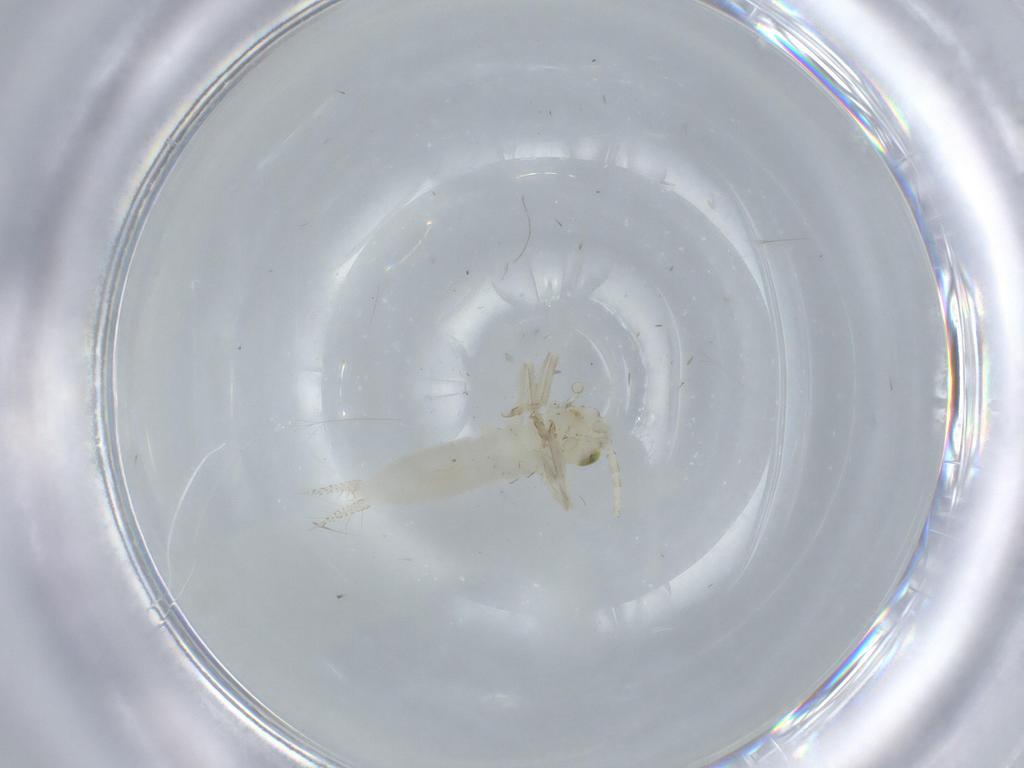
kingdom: Animalia
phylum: Arthropoda
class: Insecta
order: Orthoptera
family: Trigonidiidae
